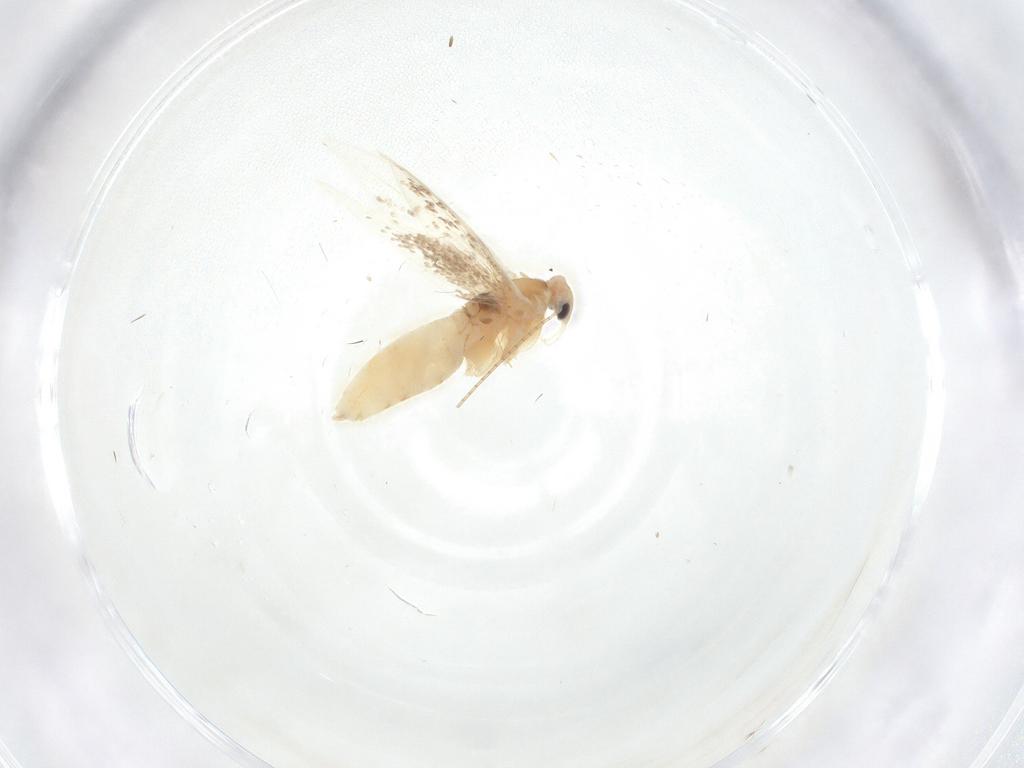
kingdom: Animalia
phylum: Arthropoda
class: Insecta
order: Lepidoptera
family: Bucculatricidae
